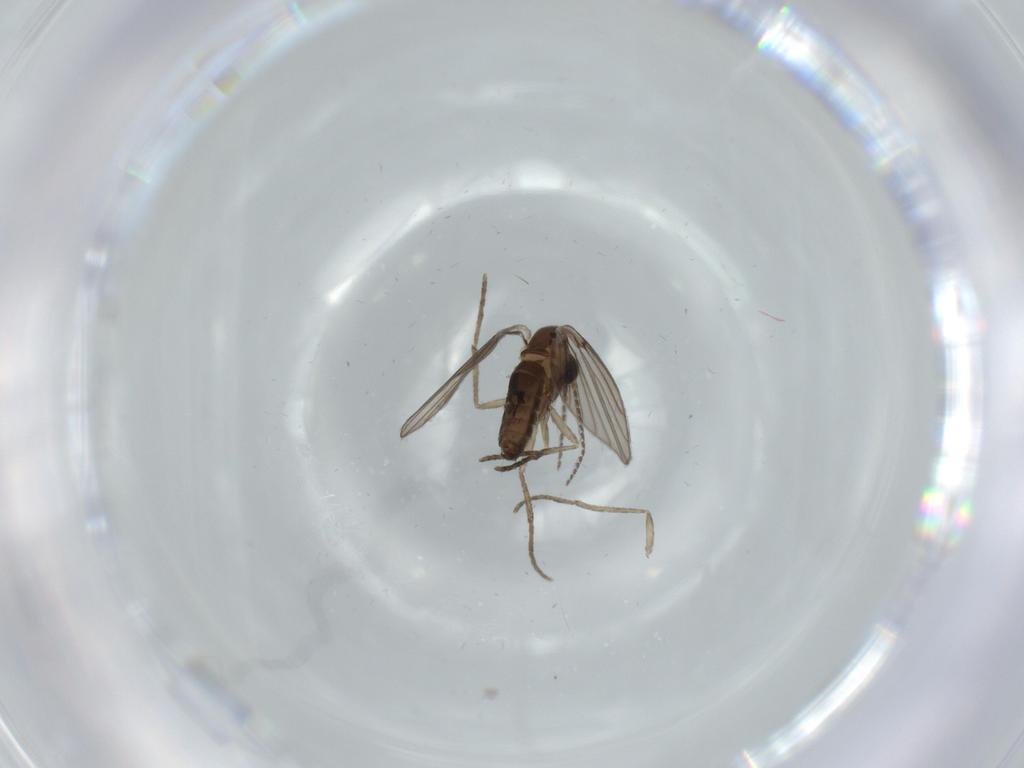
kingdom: Animalia
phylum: Arthropoda
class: Insecta
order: Diptera
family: Psychodidae
